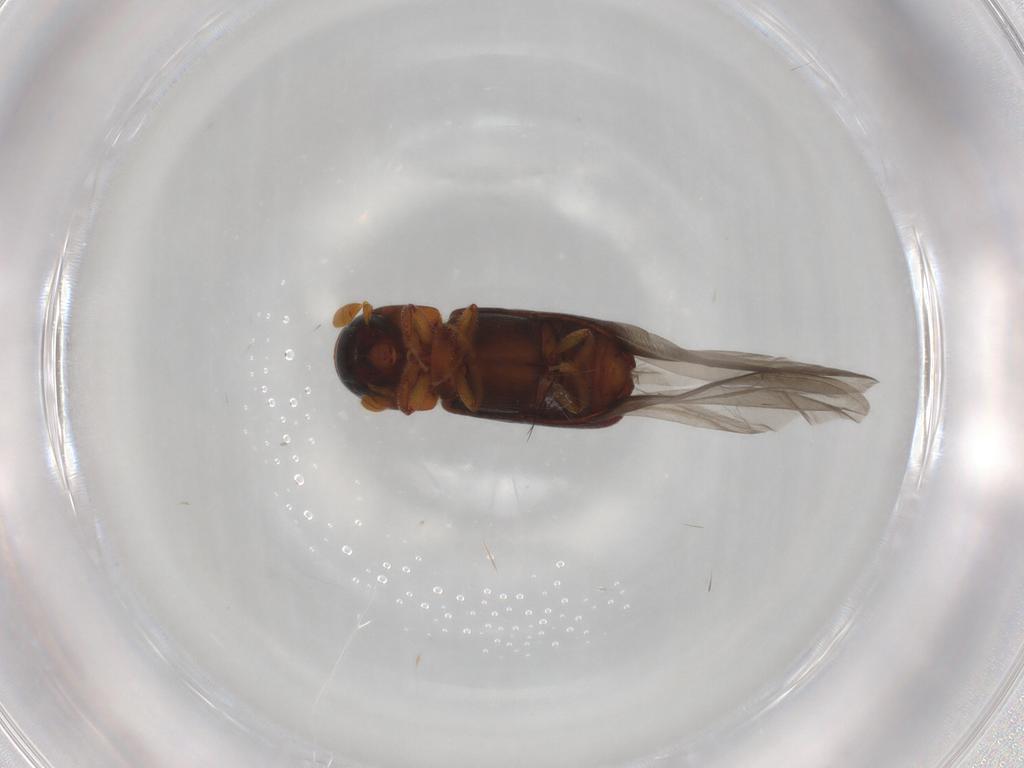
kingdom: Animalia
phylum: Arthropoda
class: Insecta
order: Coleoptera
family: Curculionidae
